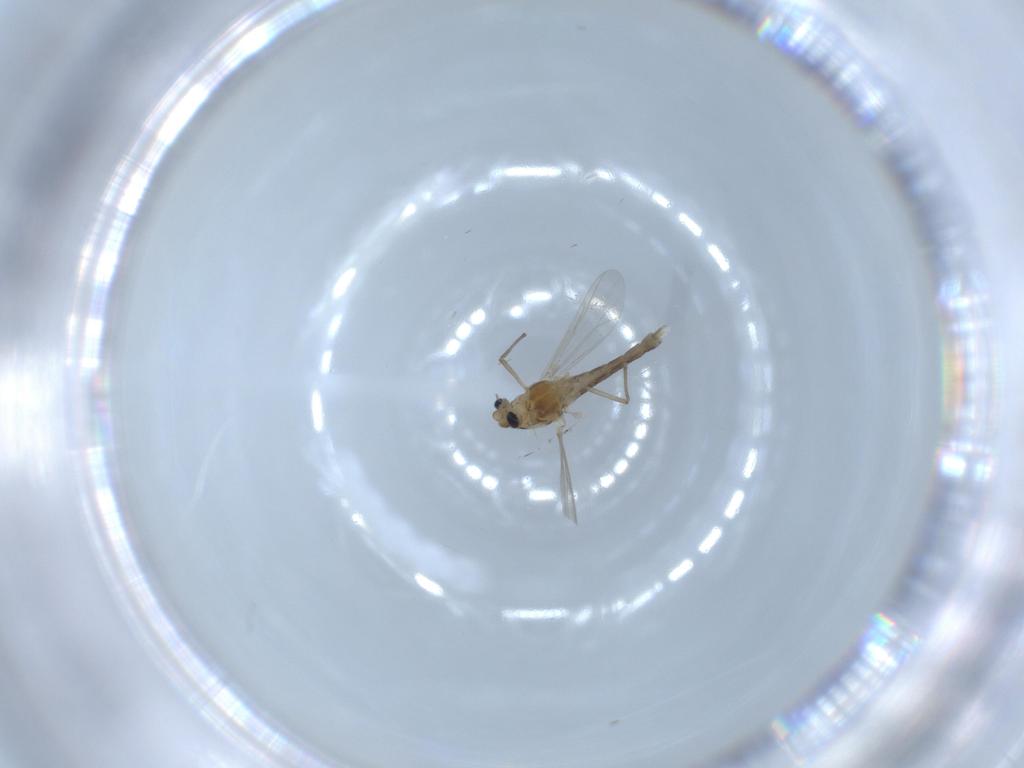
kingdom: Animalia
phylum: Arthropoda
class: Insecta
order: Diptera
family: Chironomidae
